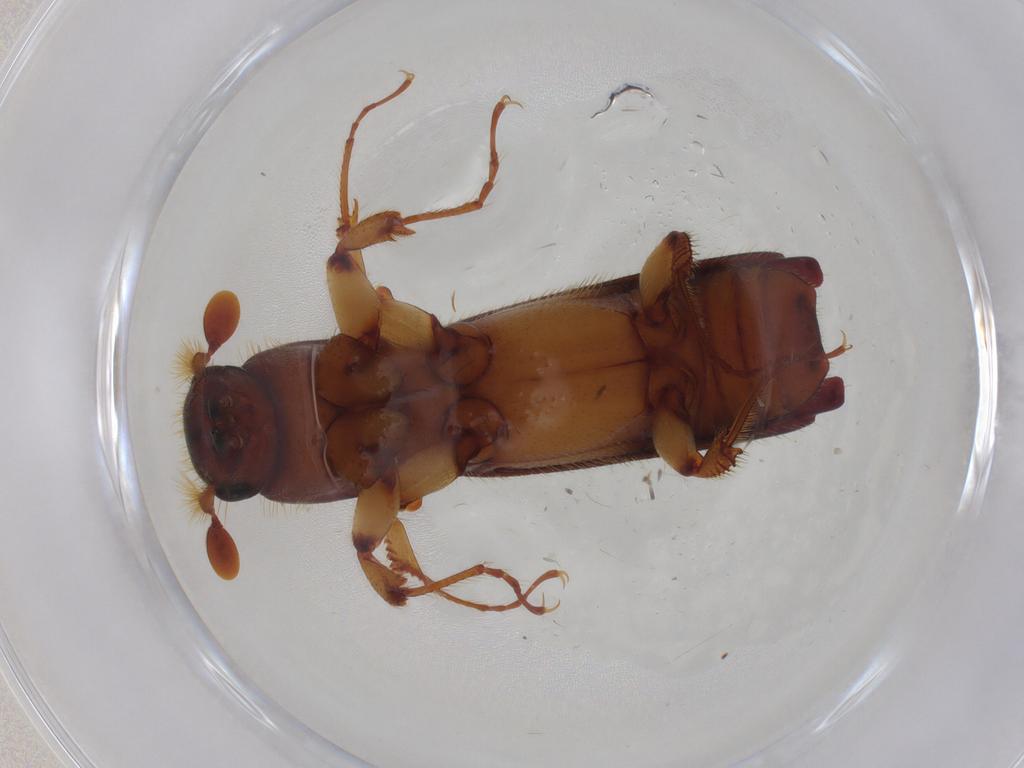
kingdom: Animalia
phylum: Arthropoda
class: Insecta
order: Coleoptera
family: Curculionidae
